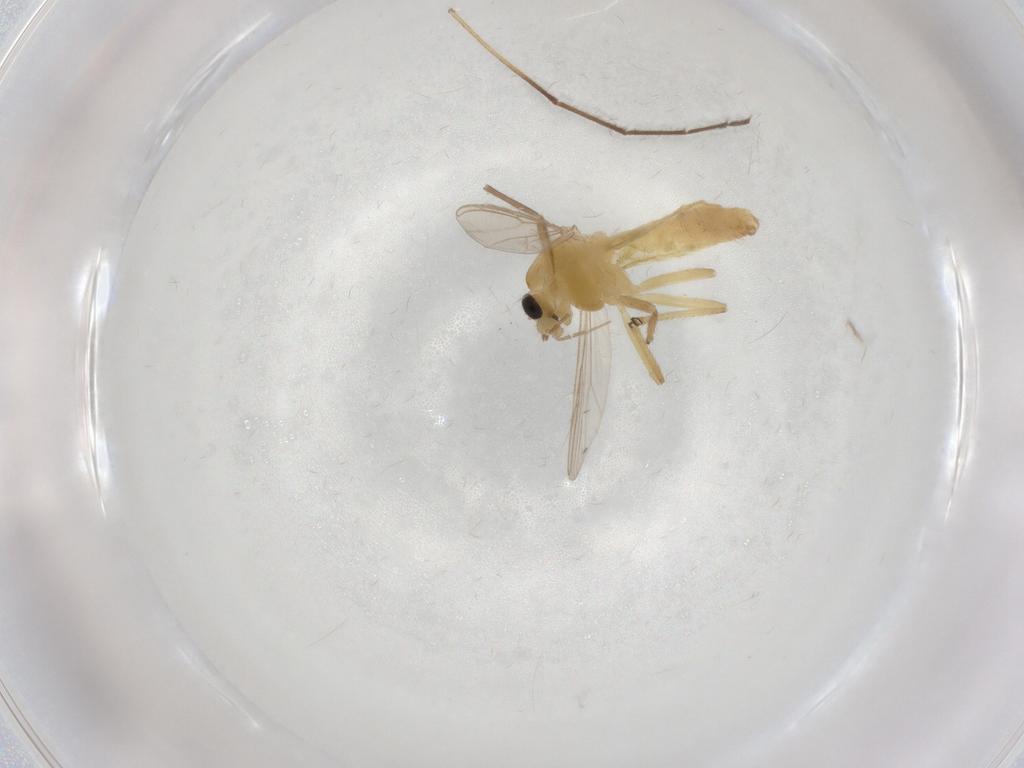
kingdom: Animalia
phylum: Arthropoda
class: Insecta
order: Diptera
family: Chironomidae
